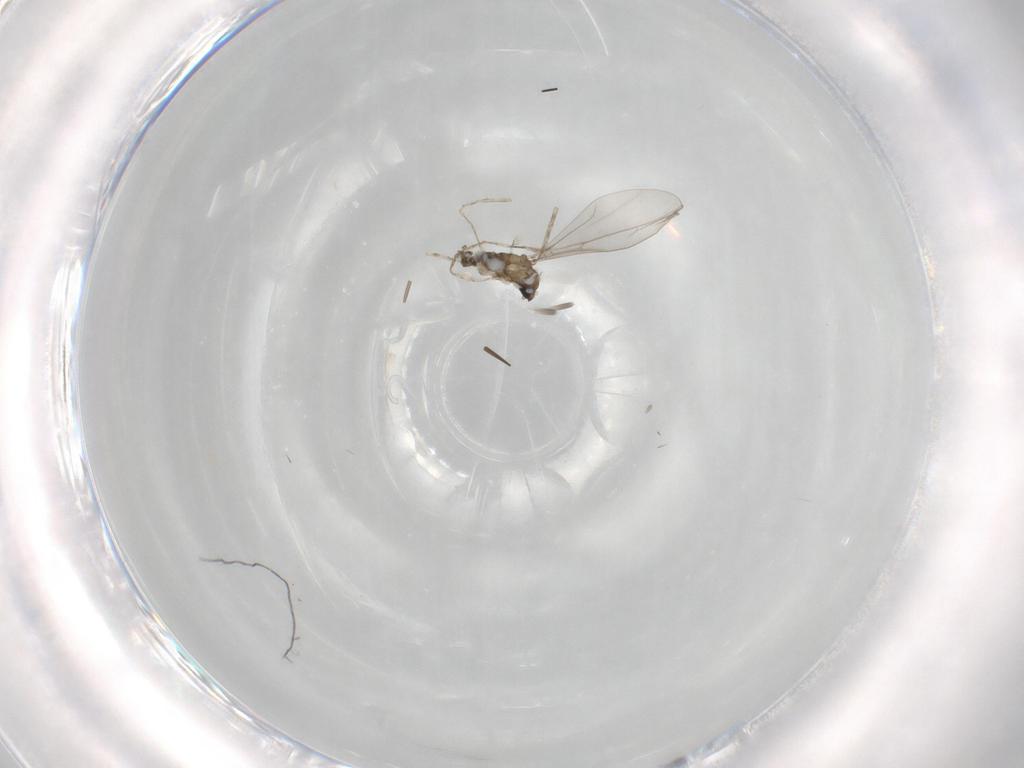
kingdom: Animalia
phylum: Arthropoda
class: Insecta
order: Diptera
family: Cecidomyiidae
